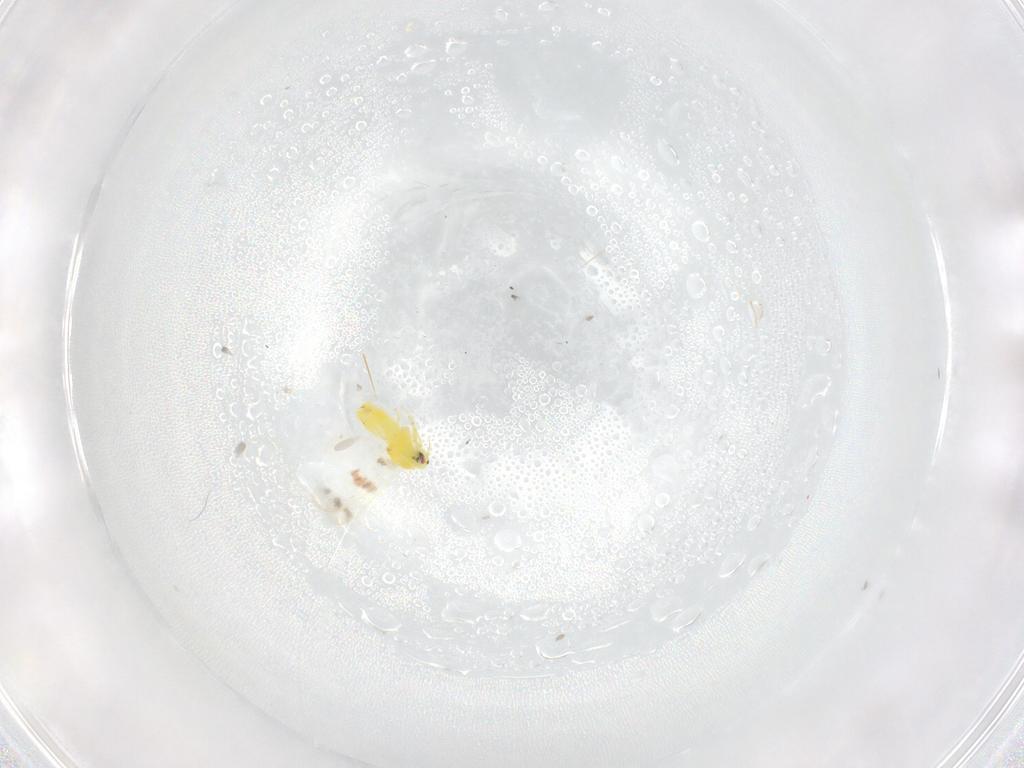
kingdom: Animalia
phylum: Arthropoda
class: Insecta
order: Hemiptera
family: Aleyrodidae
